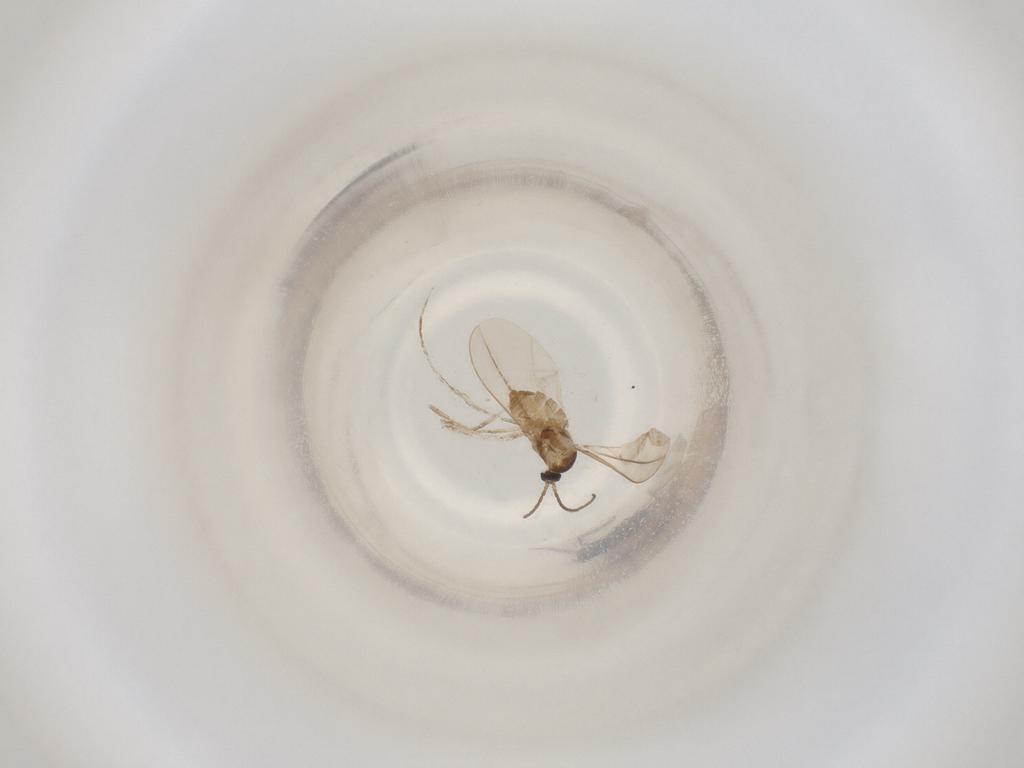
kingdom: Animalia
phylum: Arthropoda
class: Insecta
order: Diptera
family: Cecidomyiidae
